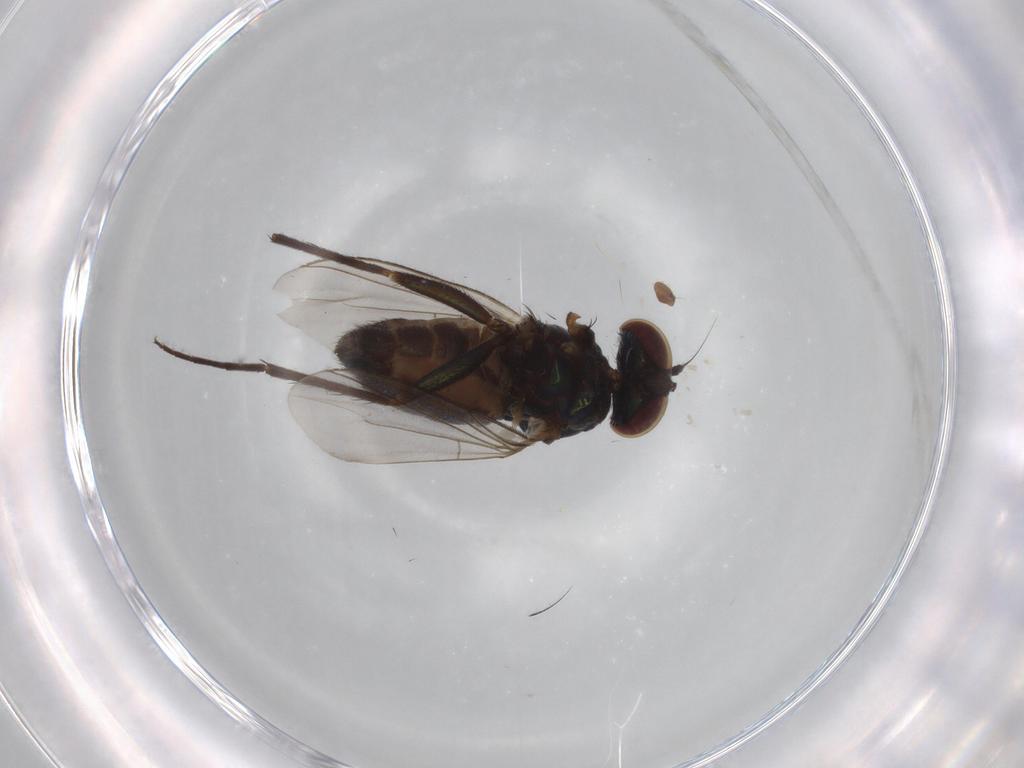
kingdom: Animalia
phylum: Arthropoda
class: Insecta
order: Diptera
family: Dolichopodidae
